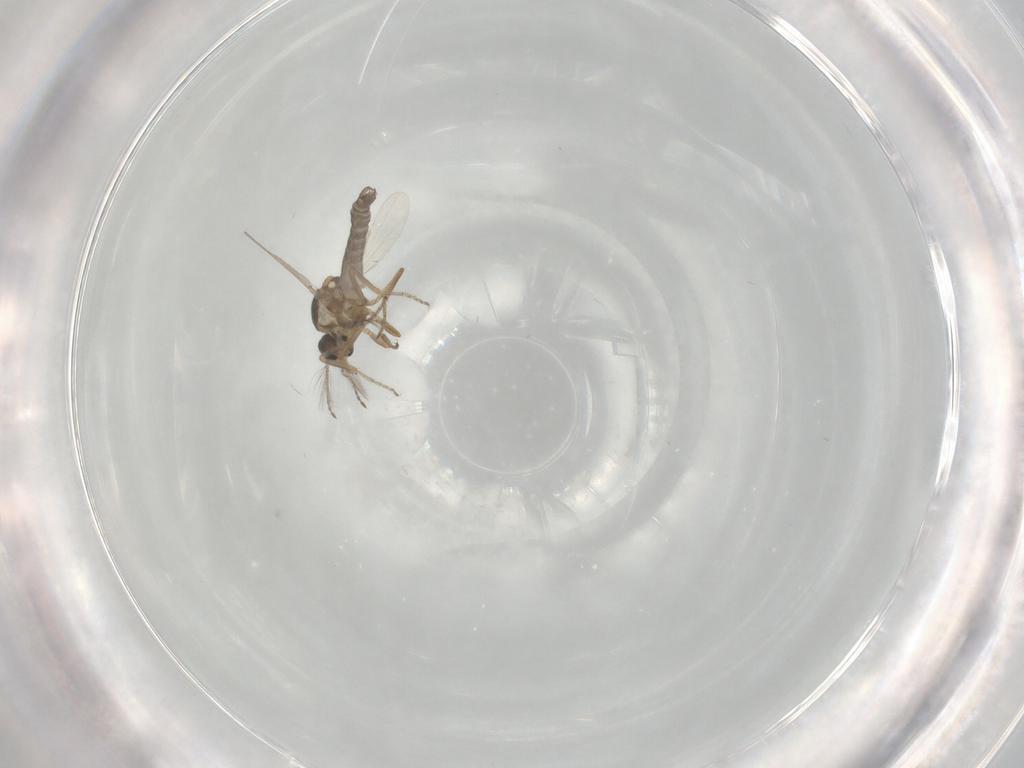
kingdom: Animalia
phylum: Arthropoda
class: Insecta
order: Diptera
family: Ceratopogonidae
